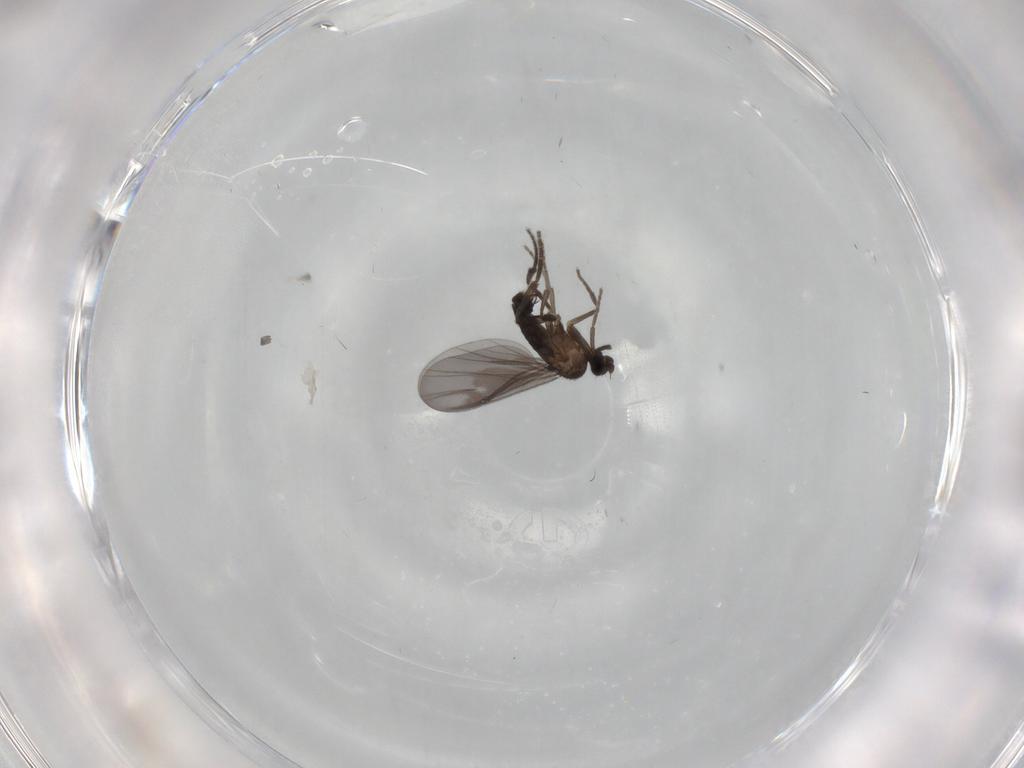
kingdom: Animalia
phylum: Arthropoda
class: Insecta
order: Diptera
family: Phoridae
